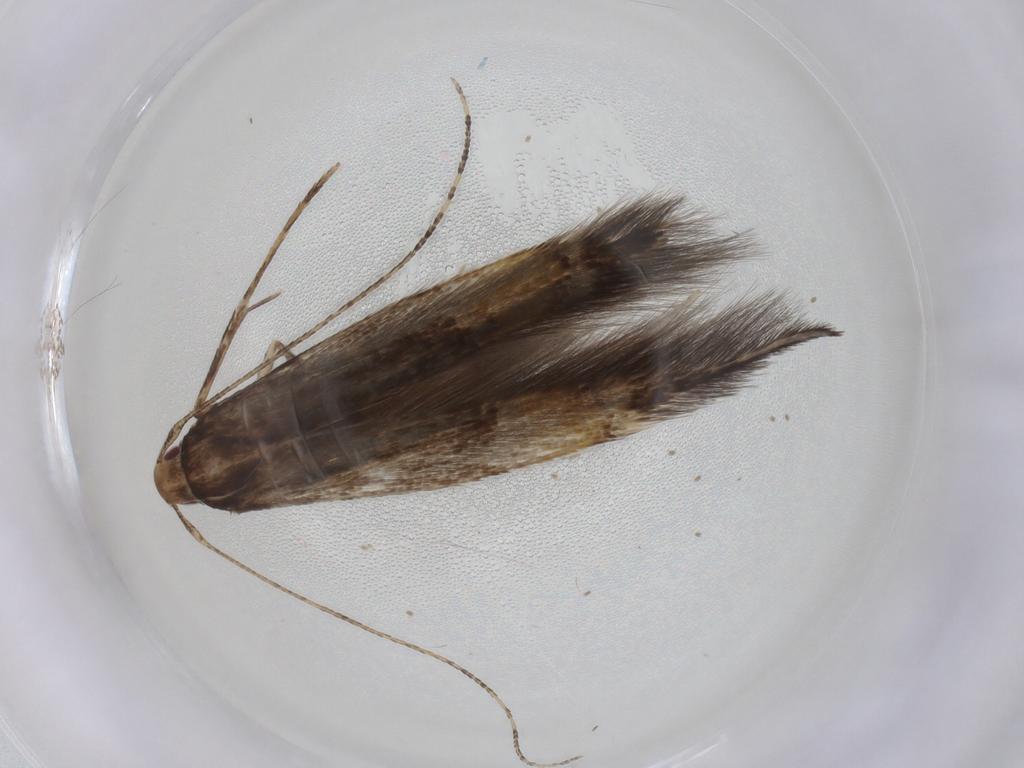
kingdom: Animalia
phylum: Arthropoda
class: Insecta
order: Lepidoptera
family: Cosmopterigidae
